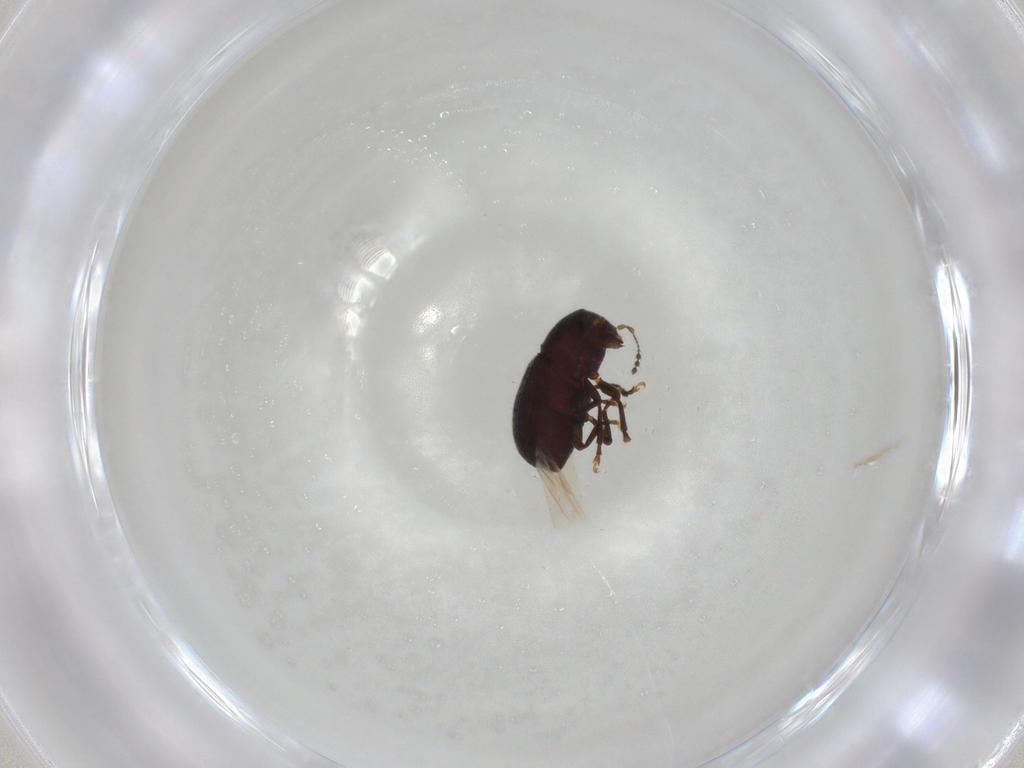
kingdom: Animalia
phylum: Arthropoda
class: Insecta
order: Coleoptera
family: Anthribidae
